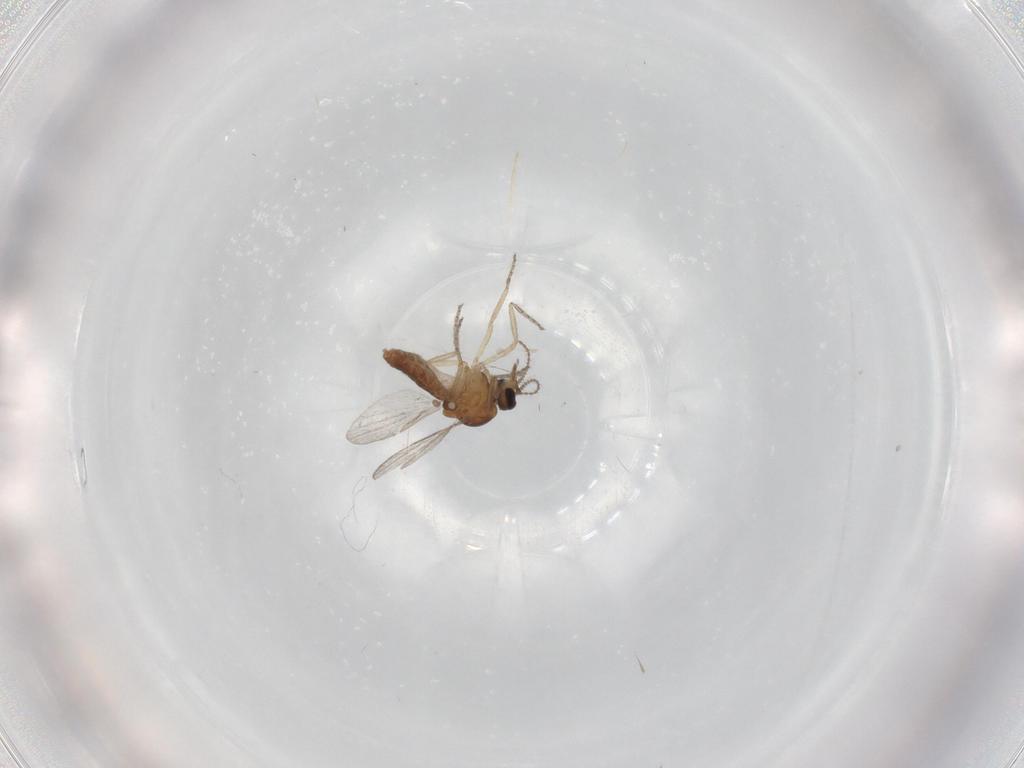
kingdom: Animalia
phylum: Arthropoda
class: Insecta
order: Diptera
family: Ceratopogonidae
